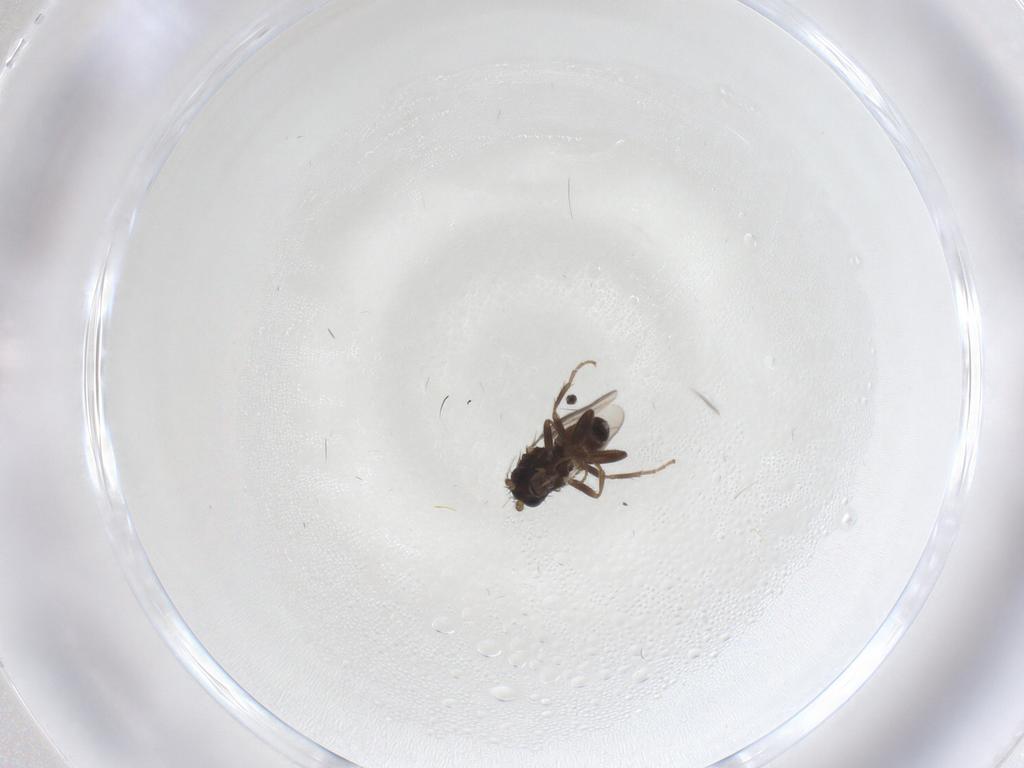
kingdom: Animalia
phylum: Arthropoda
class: Insecta
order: Diptera
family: Sphaeroceridae
